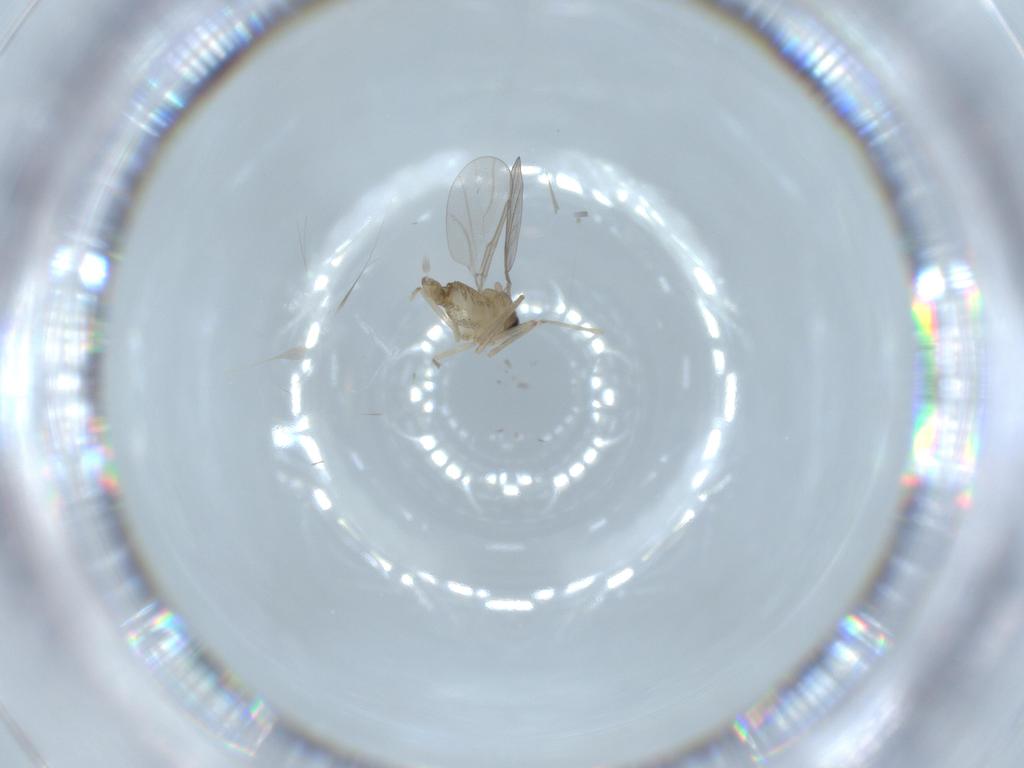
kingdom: Animalia
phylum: Arthropoda
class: Insecta
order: Diptera
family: Cecidomyiidae
